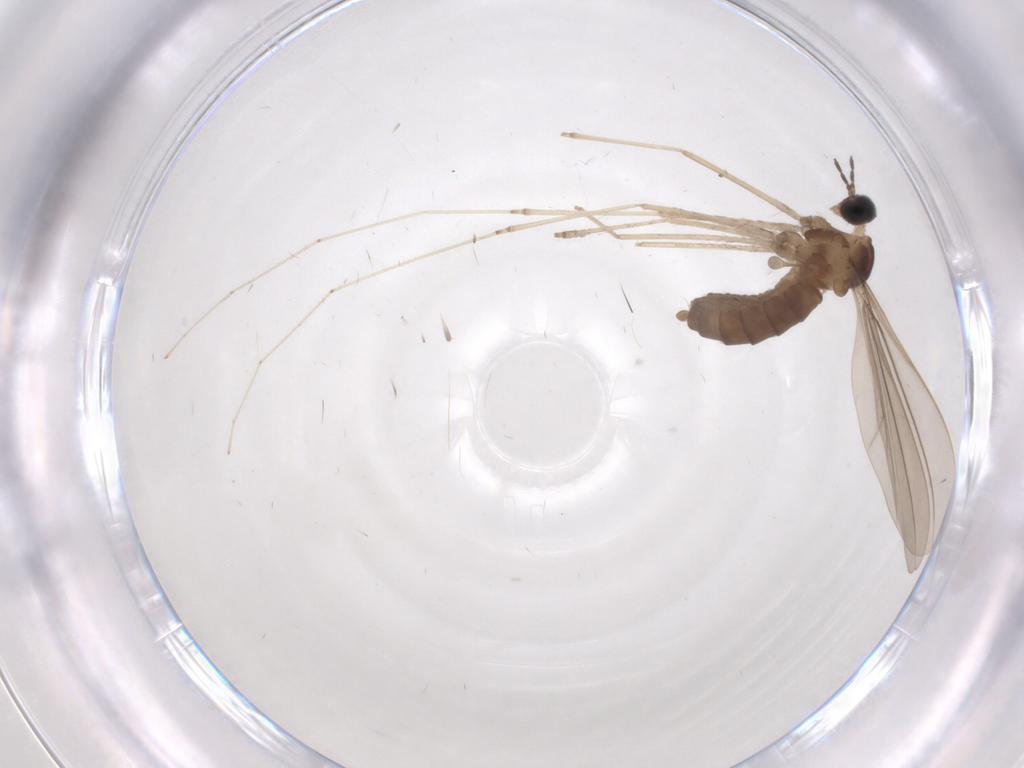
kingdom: Animalia
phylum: Arthropoda
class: Insecta
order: Diptera
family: Cecidomyiidae
